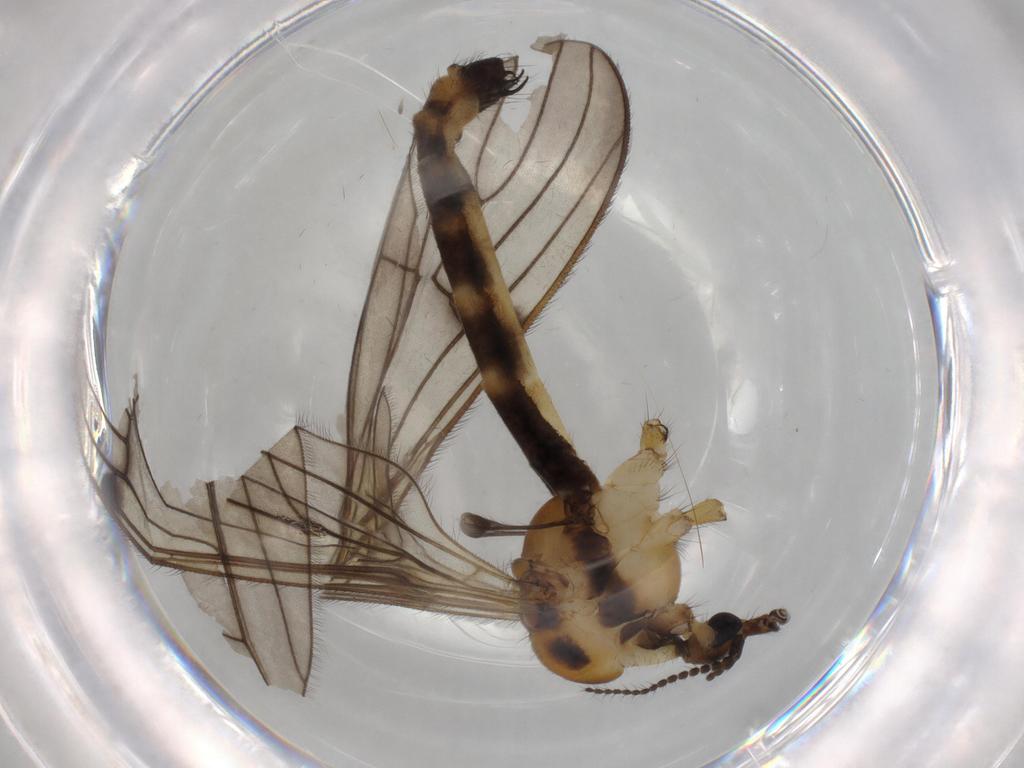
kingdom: Animalia
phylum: Arthropoda
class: Insecta
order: Diptera
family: Limoniidae
